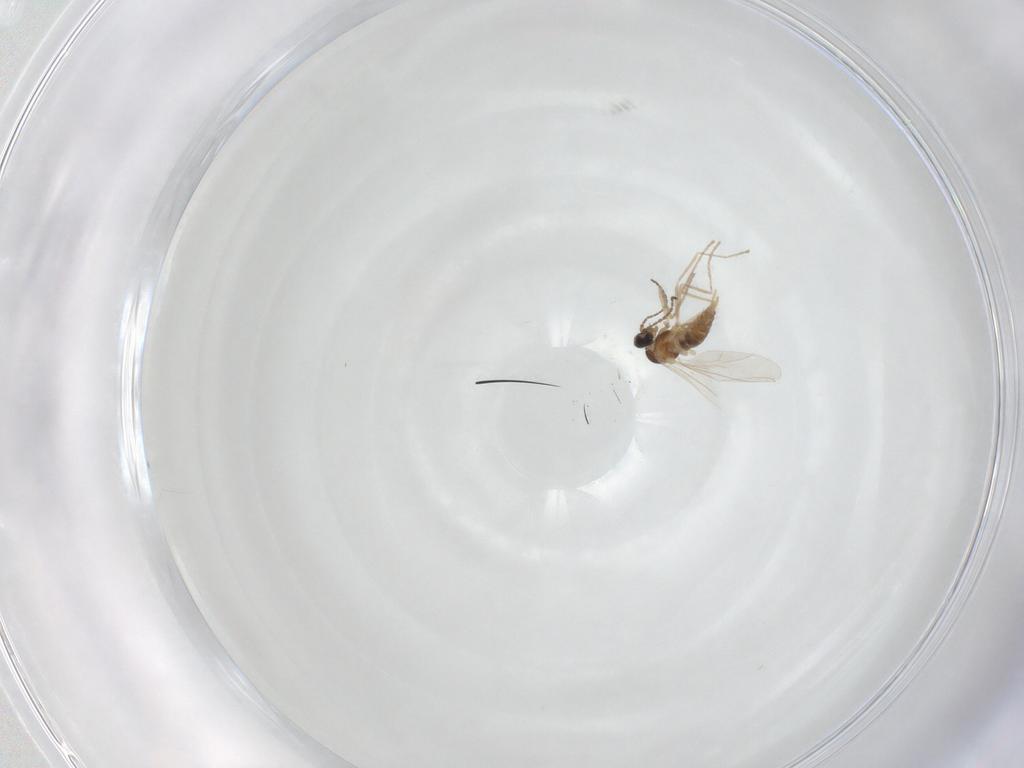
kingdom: Animalia
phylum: Arthropoda
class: Insecta
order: Diptera
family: Cecidomyiidae
